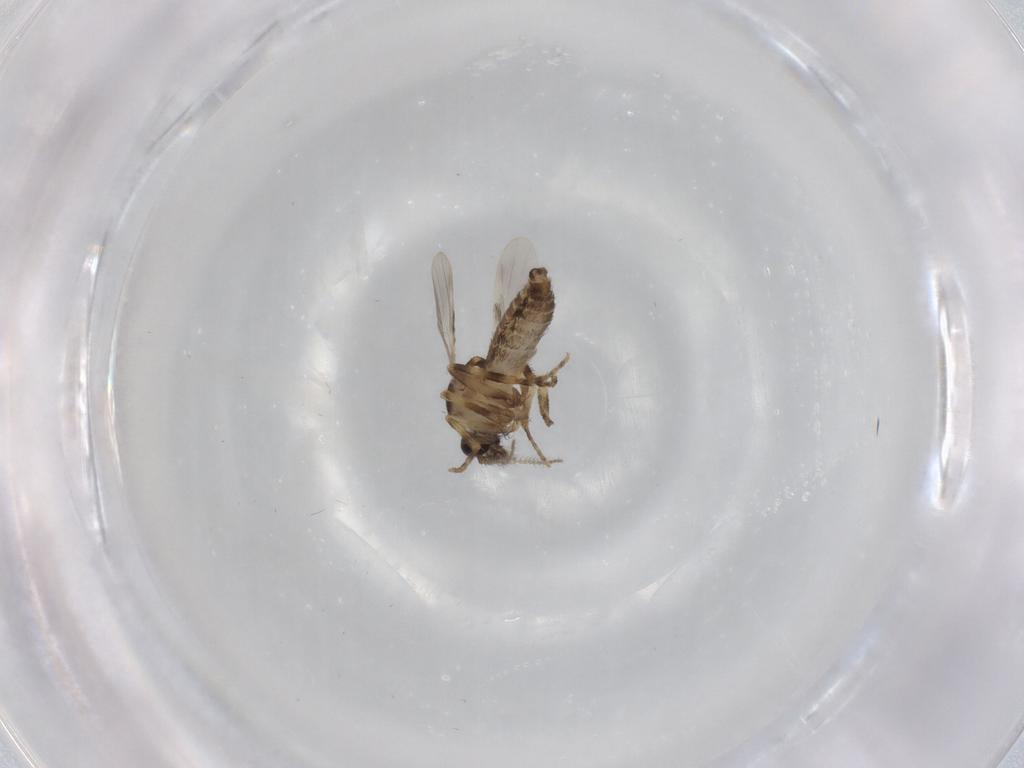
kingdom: Animalia
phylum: Arthropoda
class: Insecta
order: Diptera
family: Ceratopogonidae
